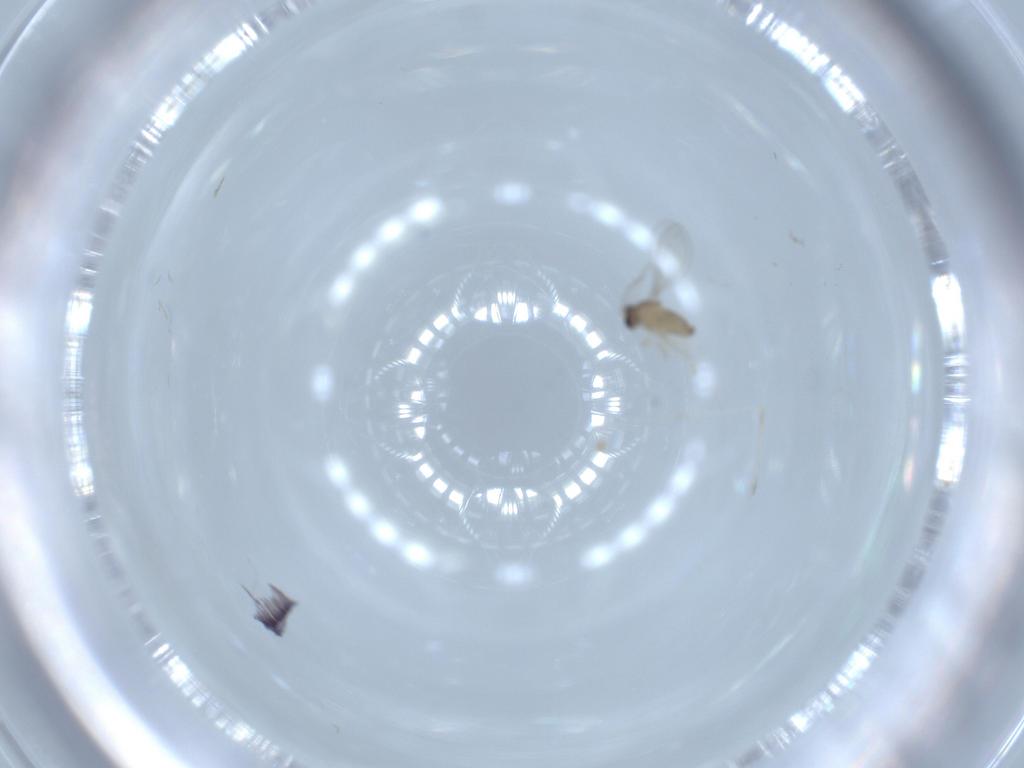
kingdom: Animalia
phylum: Arthropoda
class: Insecta
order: Diptera
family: Cecidomyiidae
